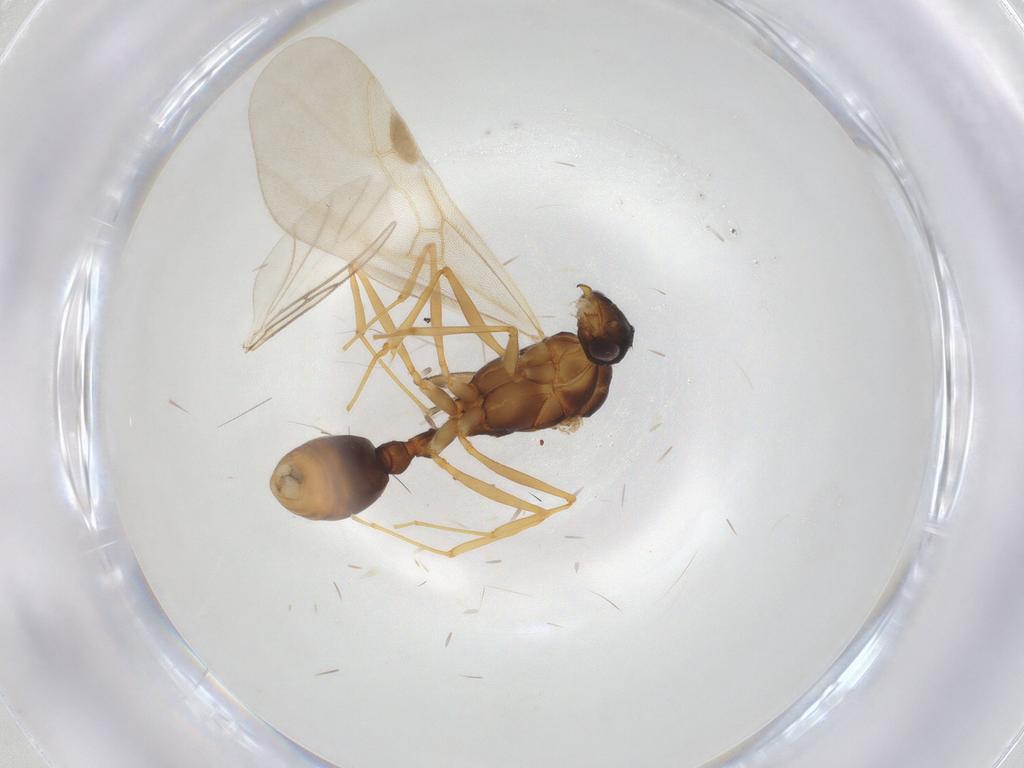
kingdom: Animalia
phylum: Arthropoda
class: Insecta
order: Hymenoptera
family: Formicidae
